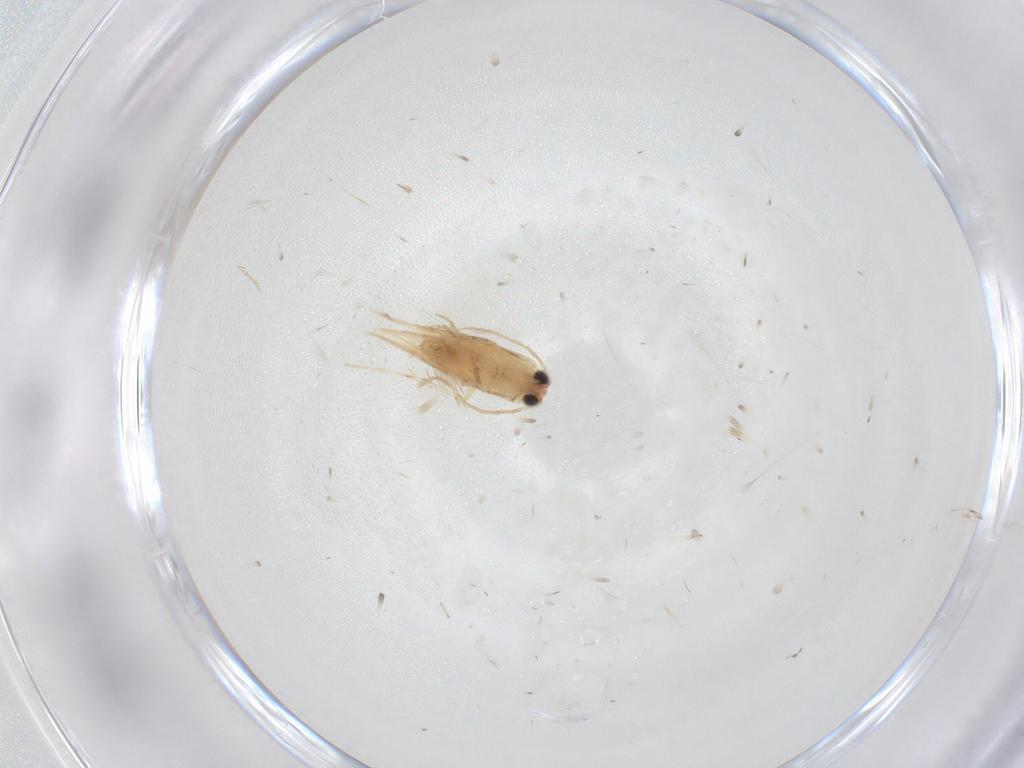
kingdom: Animalia
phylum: Arthropoda
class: Insecta
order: Lepidoptera
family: Nepticulidae
